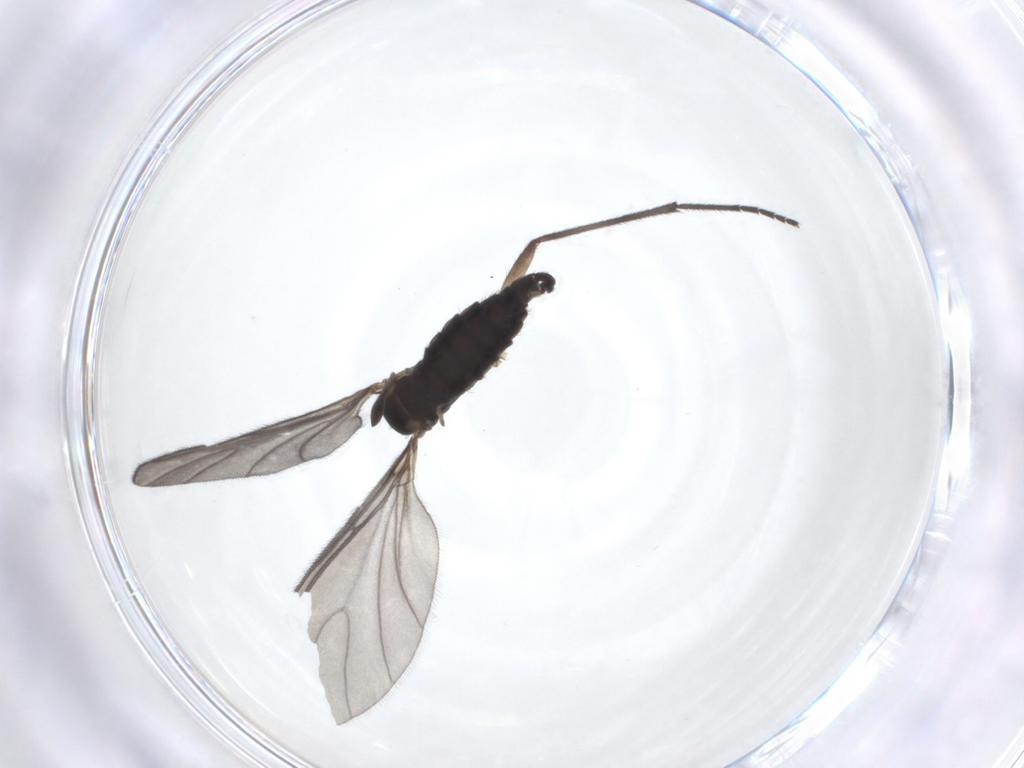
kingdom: Animalia
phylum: Arthropoda
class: Insecta
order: Diptera
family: Sciaridae
